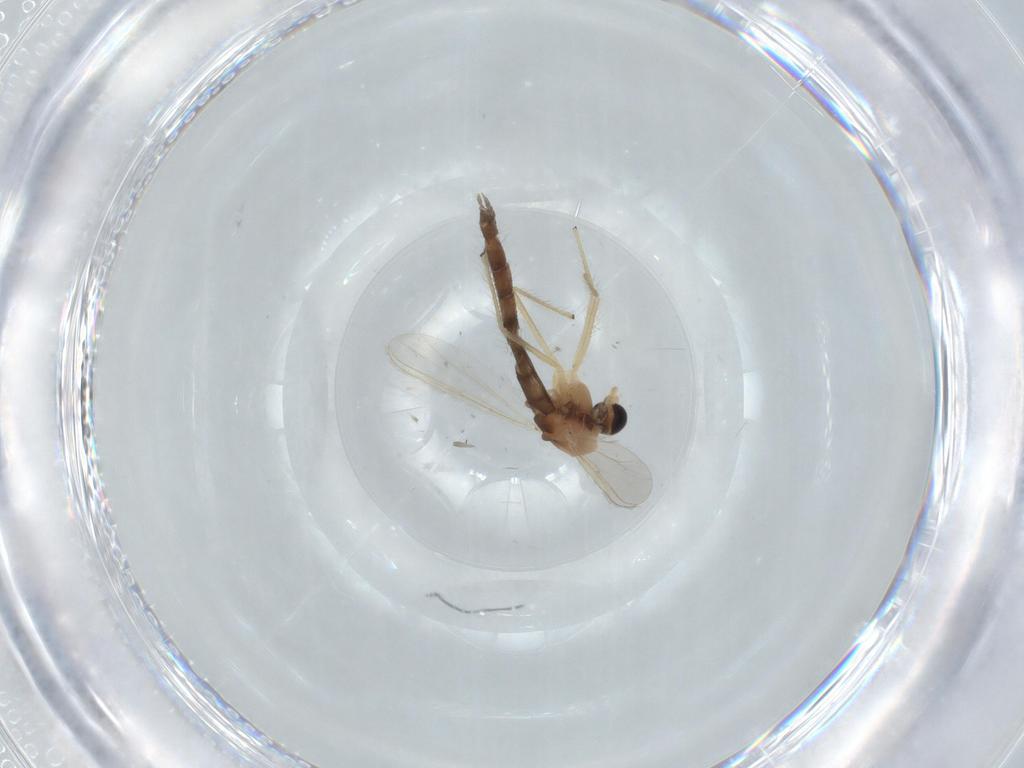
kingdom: Animalia
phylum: Arthropoda
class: Insecta
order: Diptera
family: Chironomidae
